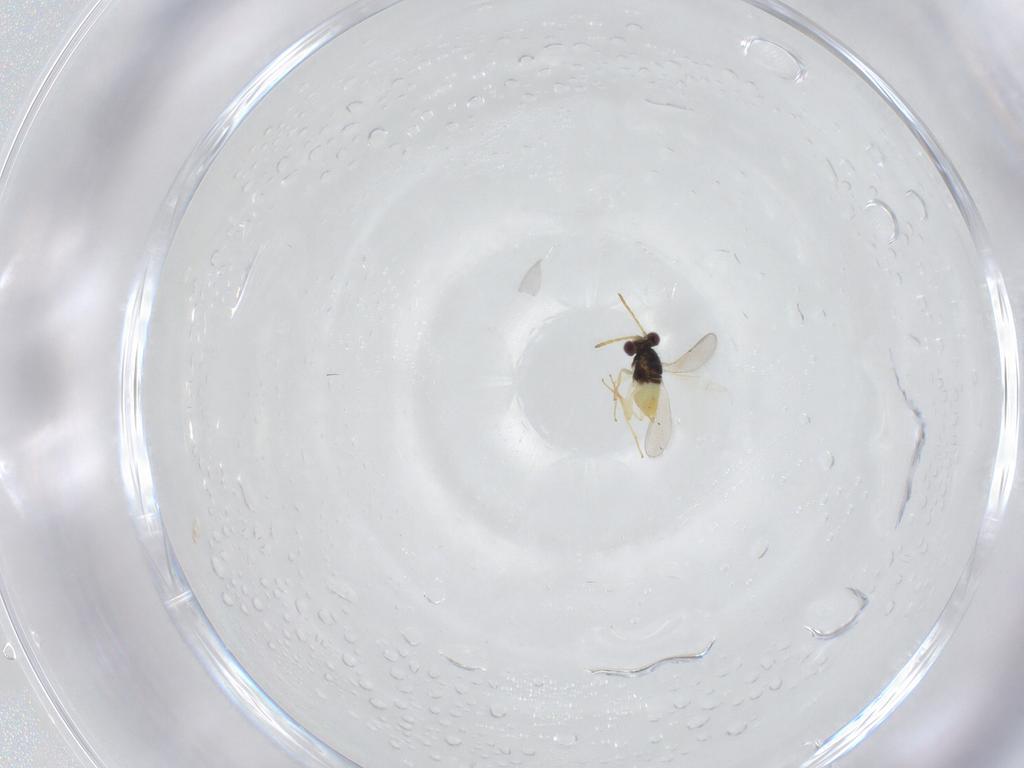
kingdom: Animalia
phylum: Arthropoda
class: Insecta
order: Hymenoptera
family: Aphelinidae
